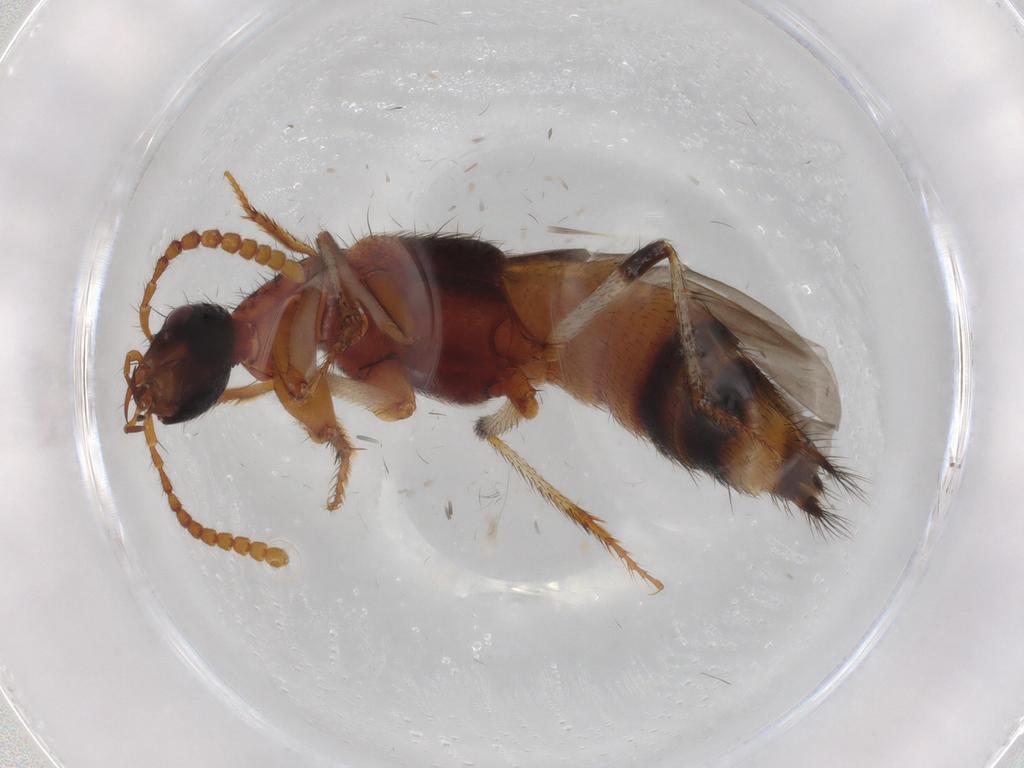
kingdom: Animalia
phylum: Arthropoda
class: Insecta
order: Coleoptera
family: Staphylinidae
